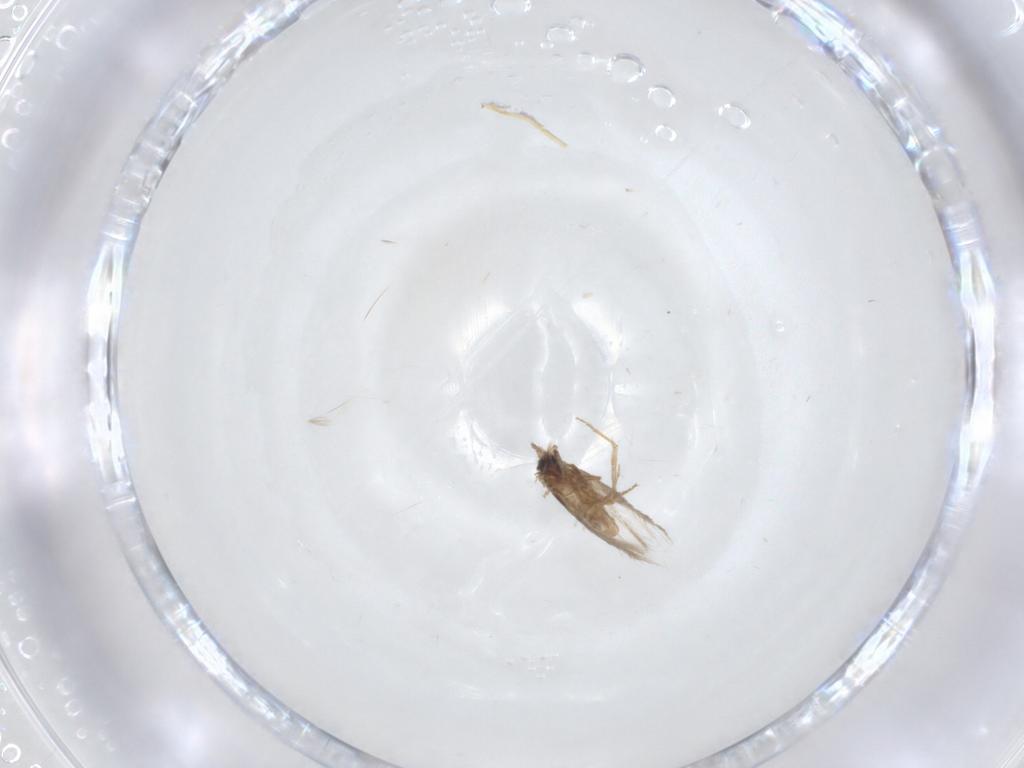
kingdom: Animalia
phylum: Arthropoda
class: Insecta
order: Lepidoptera
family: Nepticulidae
